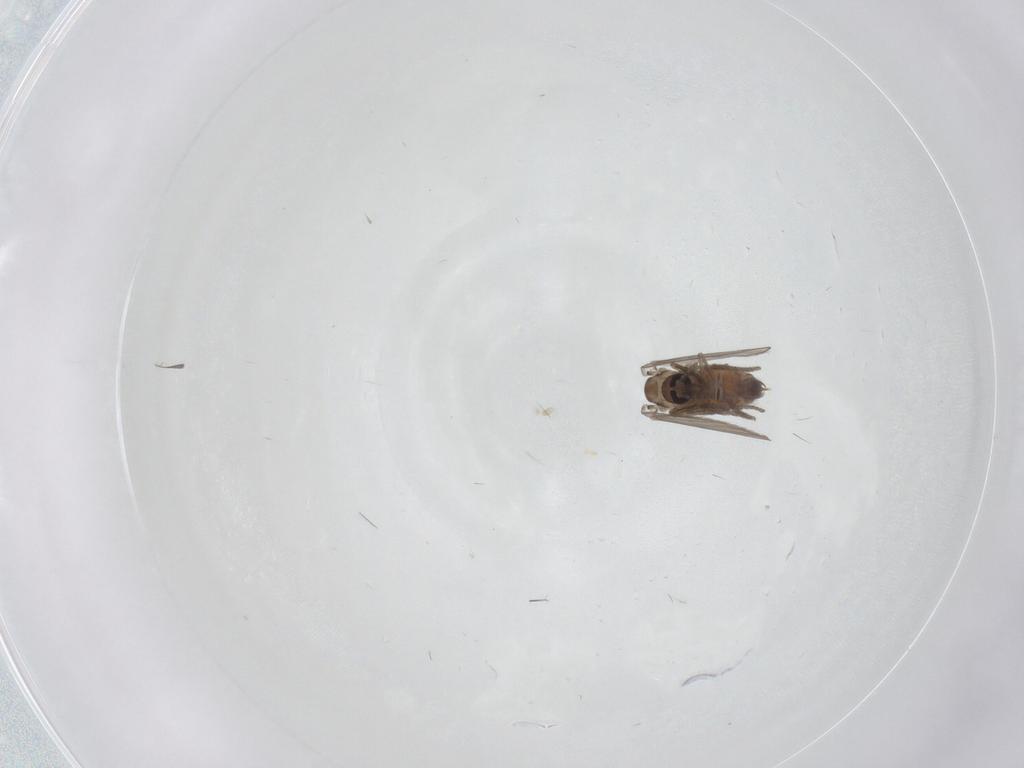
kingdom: Animalia
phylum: Arthropoda
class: Insecta
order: Diptera
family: Psychodidae
